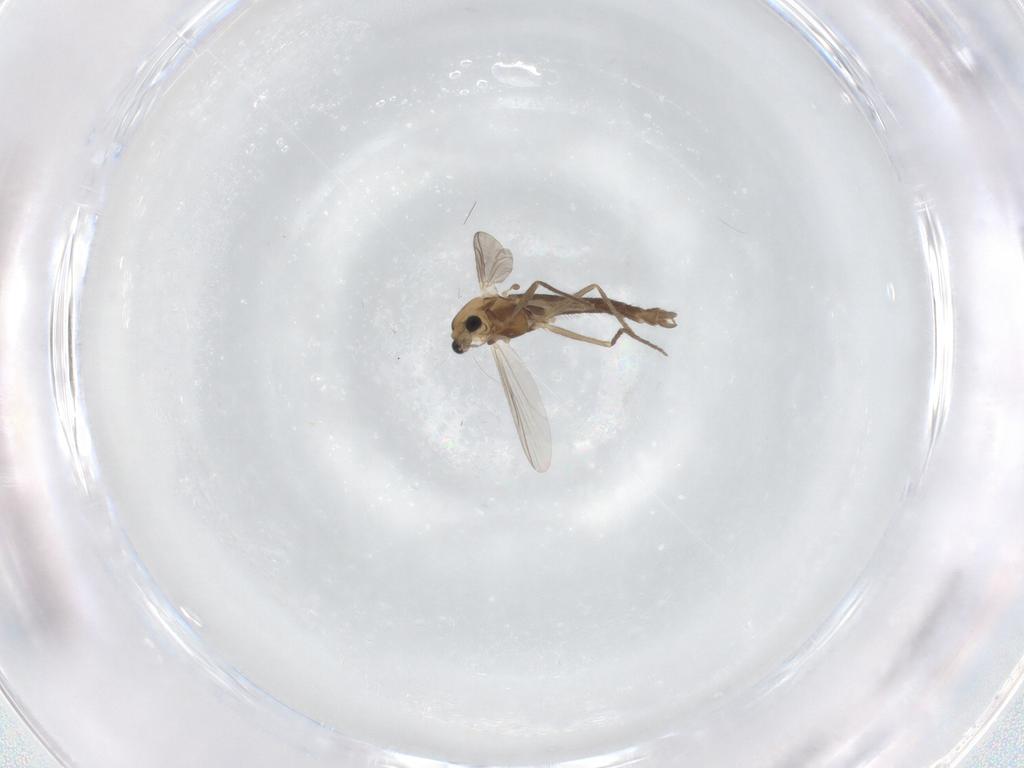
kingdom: Animalia
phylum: Arthropoda
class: Insecta
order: Diptera
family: Chironomidae
